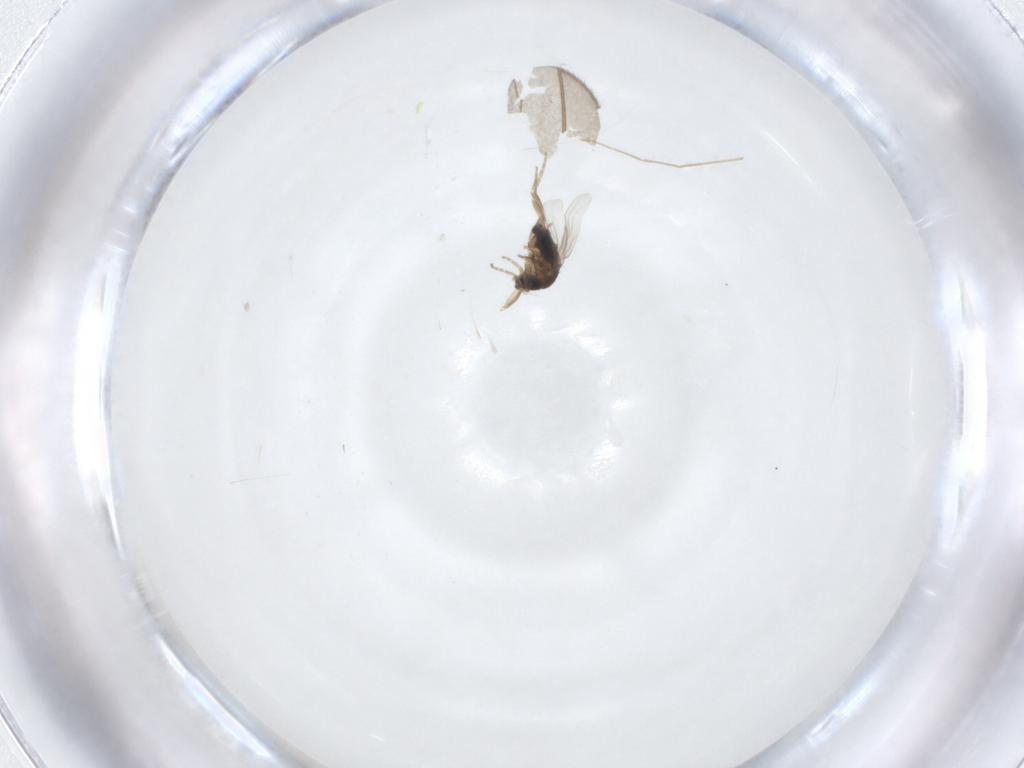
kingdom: Animalia
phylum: Arthropoda
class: Insecta
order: Diptera
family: Phoridae
